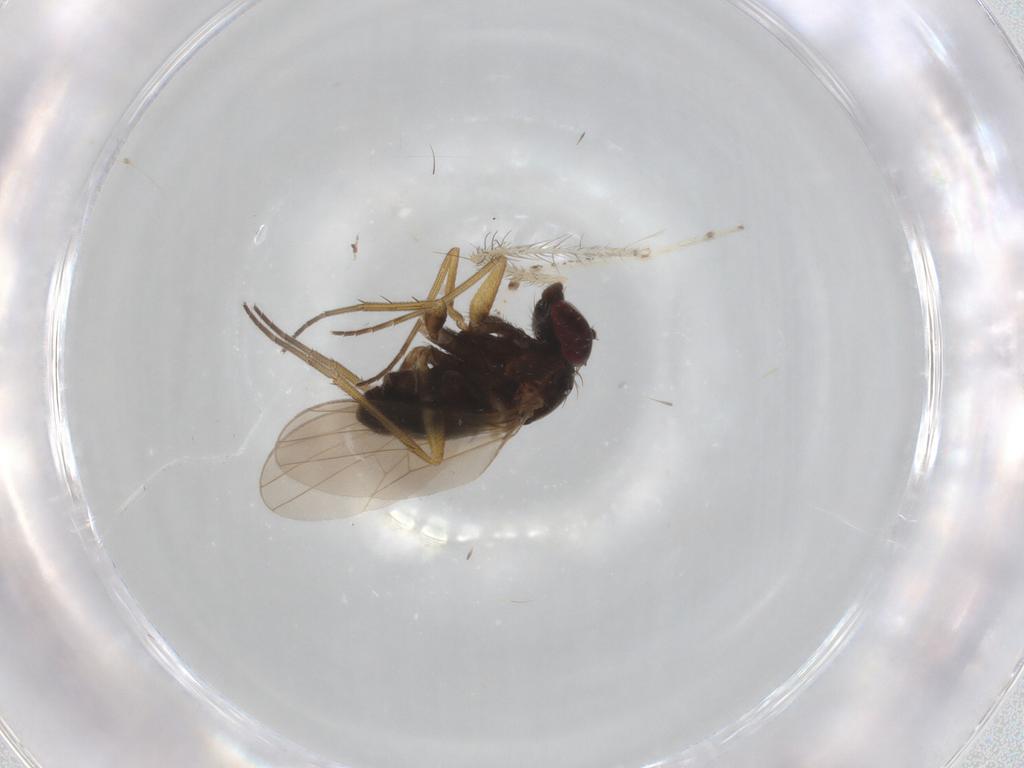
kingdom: Animalia
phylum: Arthropoda
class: Insecta
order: Diptera
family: Cecidomyiidae
